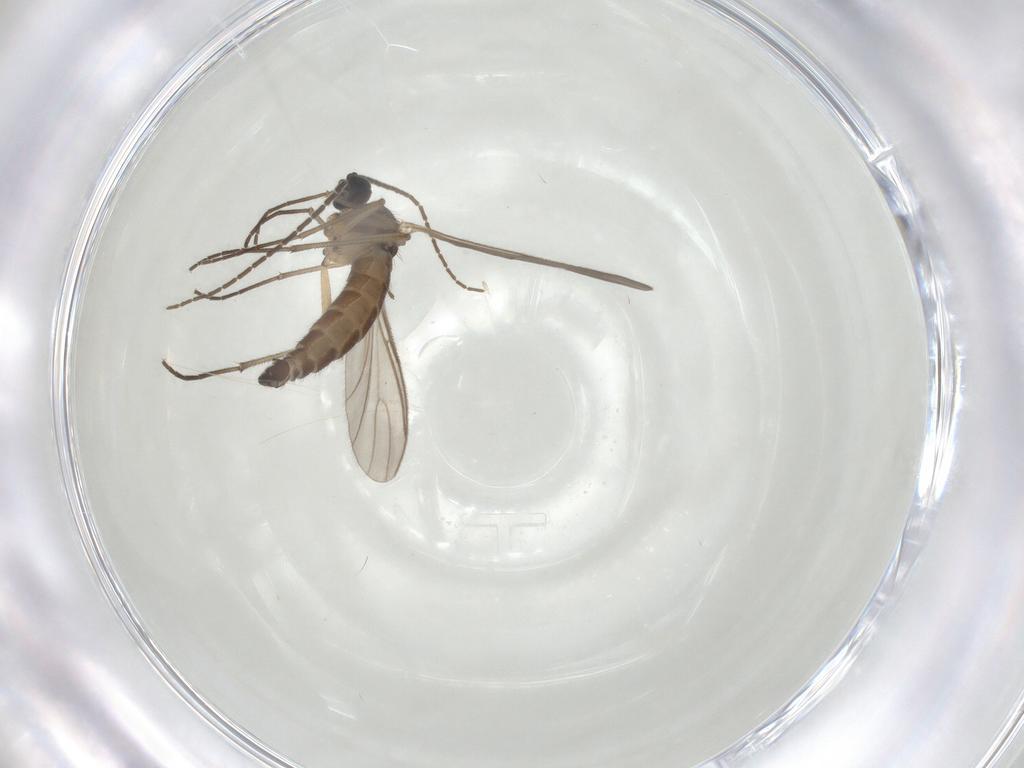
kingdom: Animalia
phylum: Arthropoda
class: Insecta
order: Diptera
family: Sciaridae
